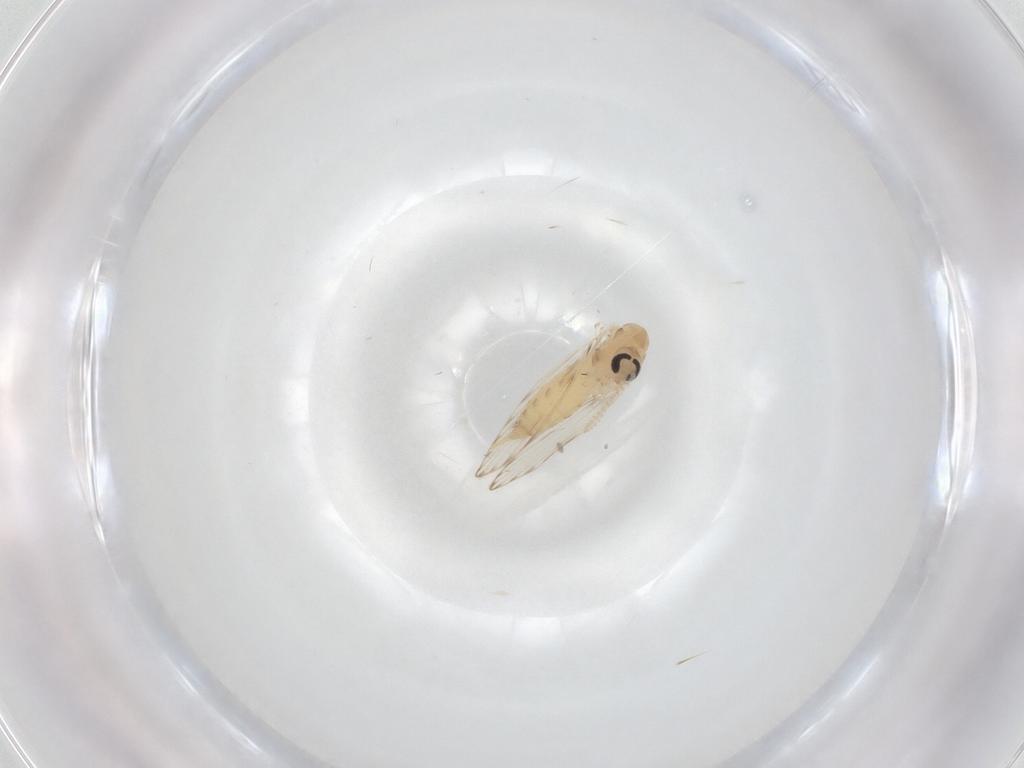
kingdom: Animalia
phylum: Arthropoda
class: Insecta
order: Diptera
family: Psychodidae
